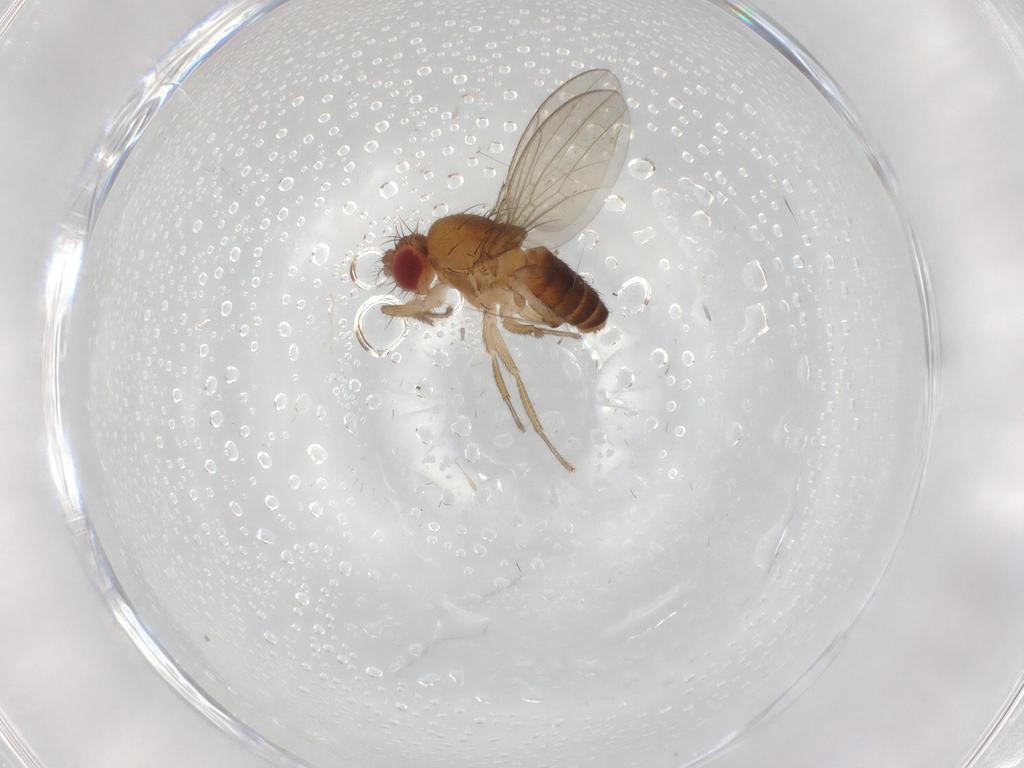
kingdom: Animalia
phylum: Arthropoda
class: Insecta
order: Diptera
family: Drosophilidae
